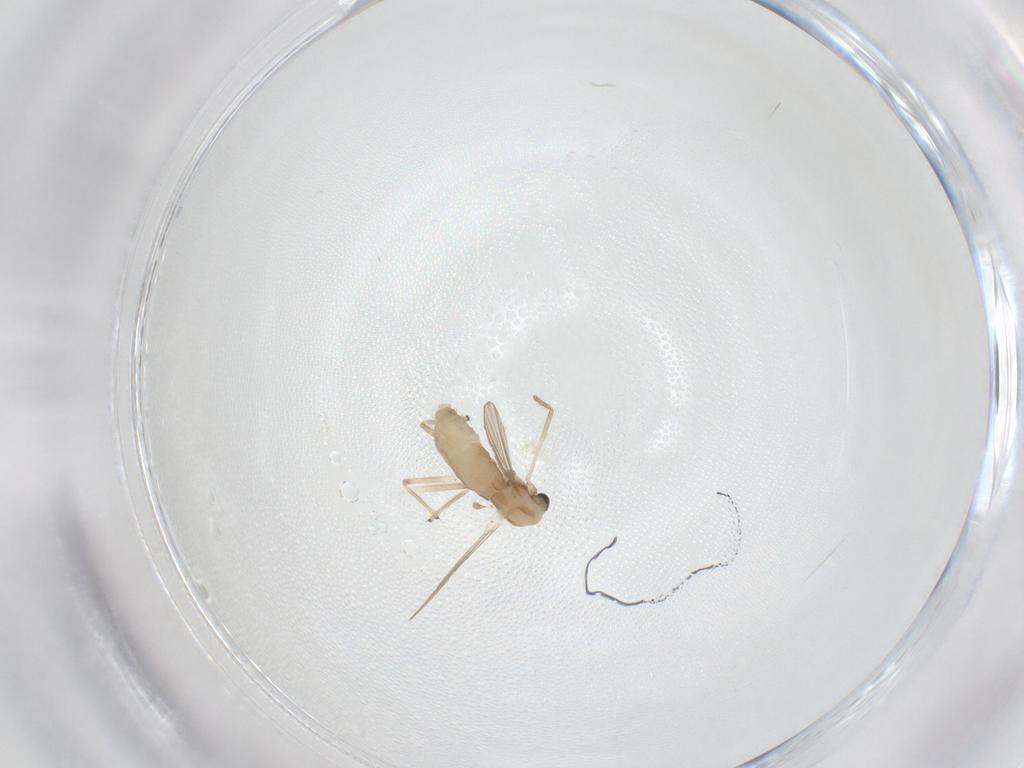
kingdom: Animalia
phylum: Arthropoda
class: Insecta
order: Diptera
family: Chironomidae
